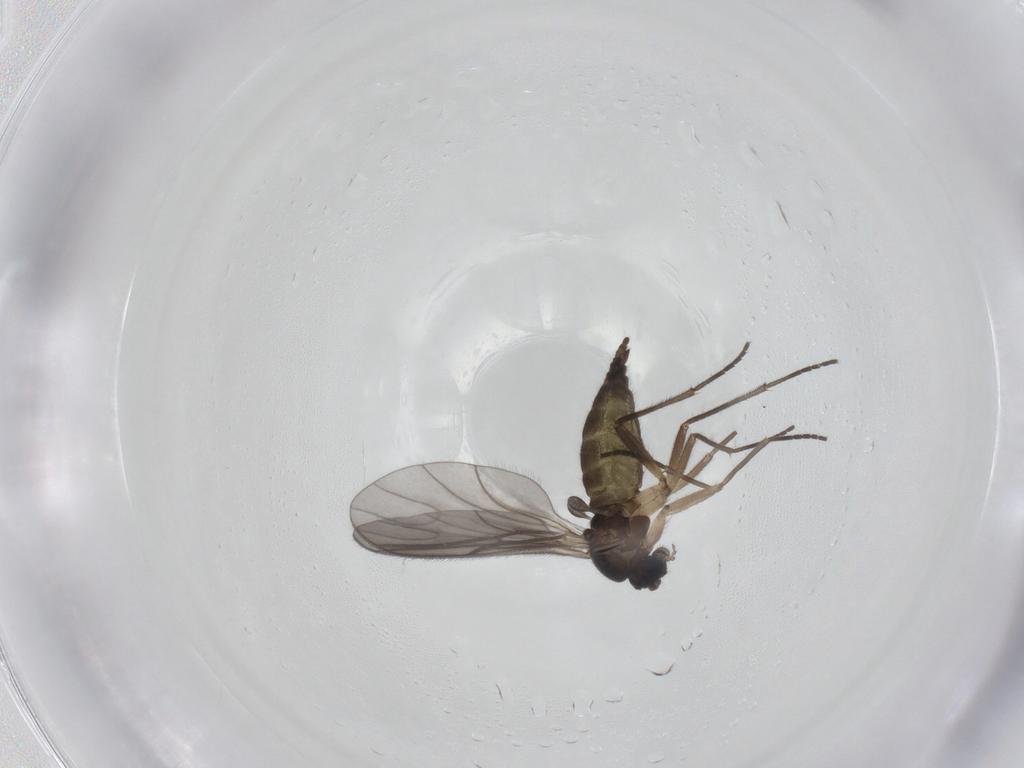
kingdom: Animalia
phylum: Arthropoda
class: Insecta
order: Diptera
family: Sciaridae
